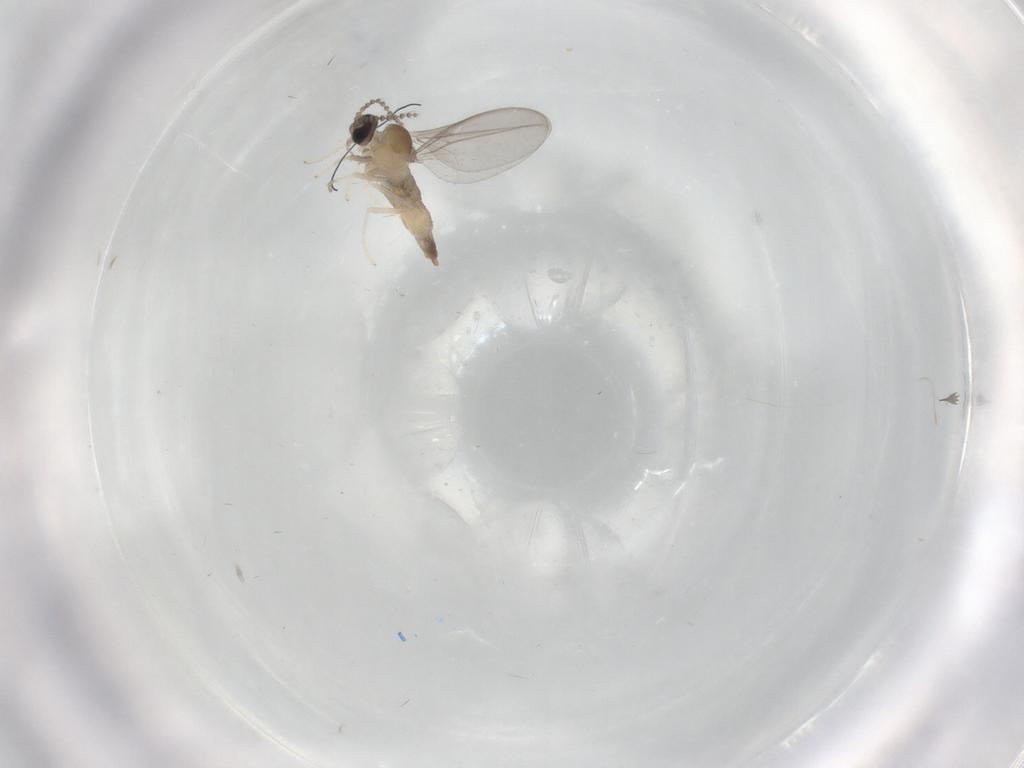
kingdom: Animalia
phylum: Arthropoda
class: Insecta
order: Diptera
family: Chironomidae
